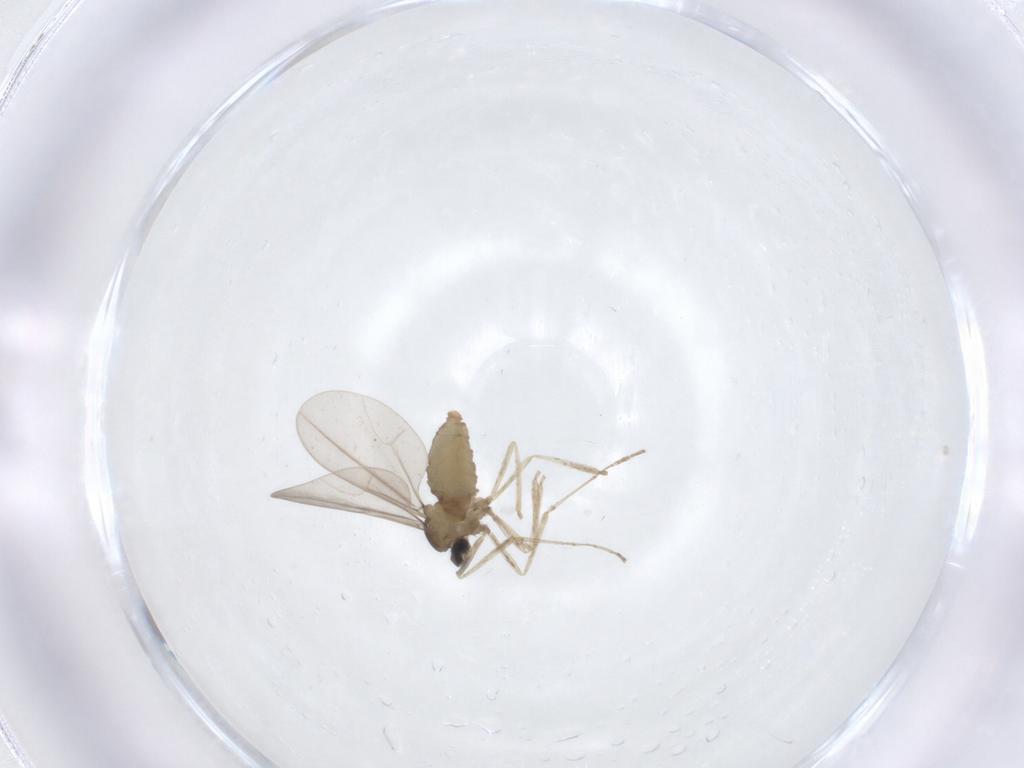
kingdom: Animalia
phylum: Arthropoda
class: Insecta
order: Diptera
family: Cecidomyiidae
